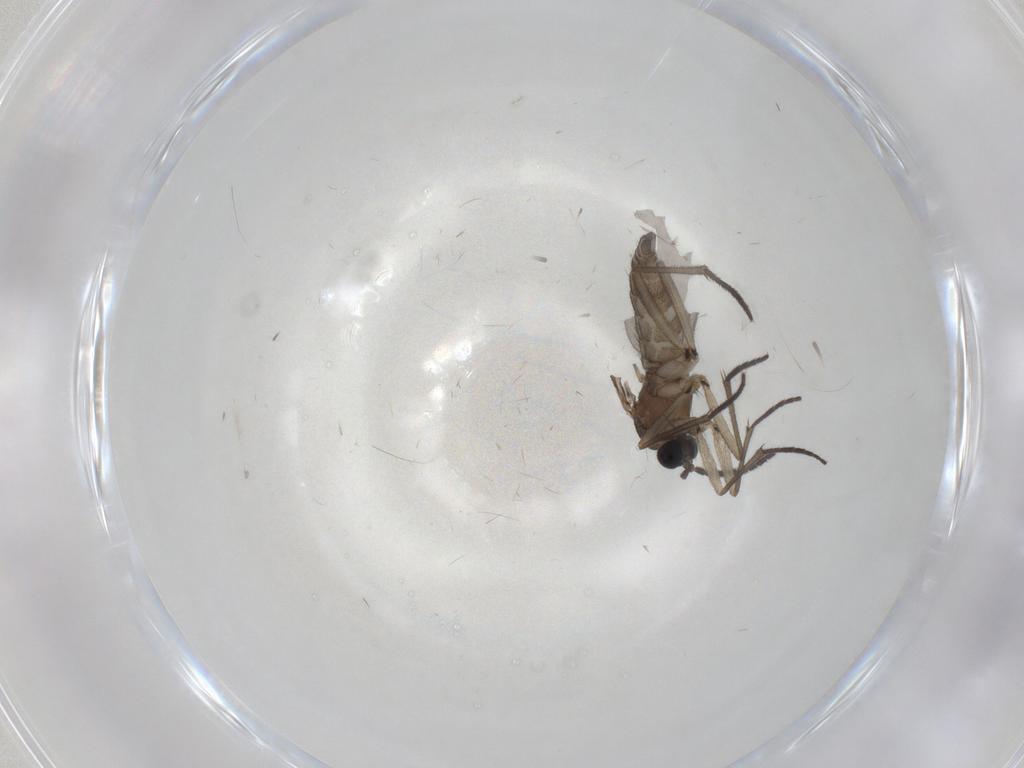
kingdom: Animalia
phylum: Arthropoda
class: Insecta
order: Diptera
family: Sciaridae
